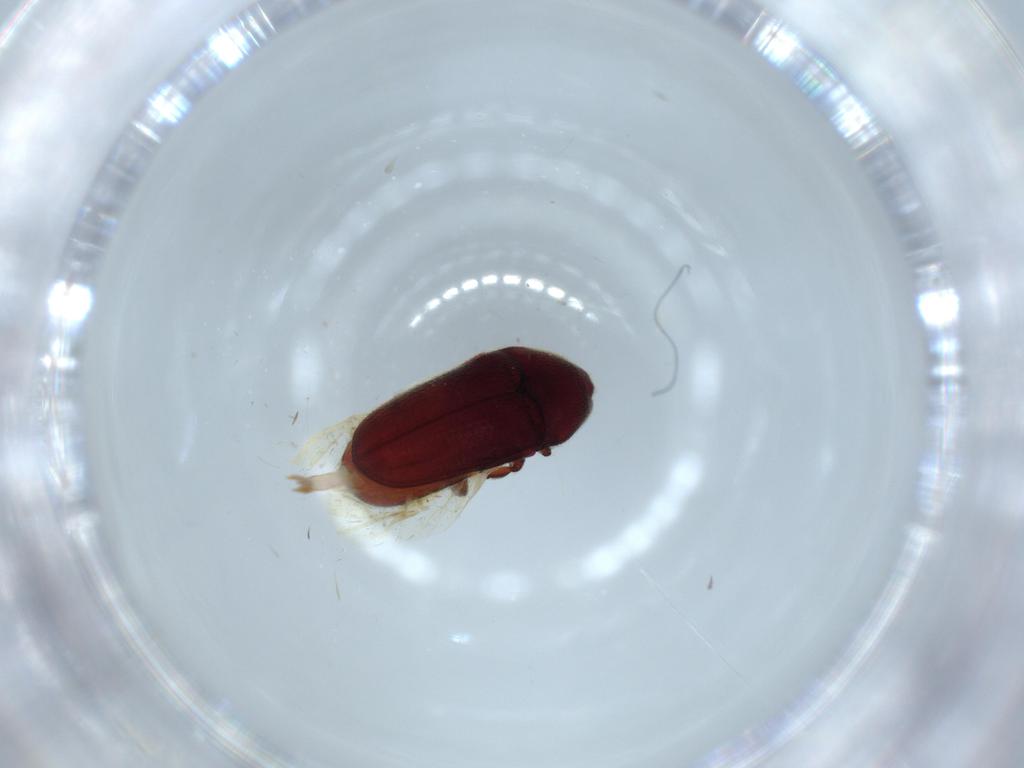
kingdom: Animalia
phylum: Arthropoda
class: Insecta
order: Coleoptera
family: Throscidae
